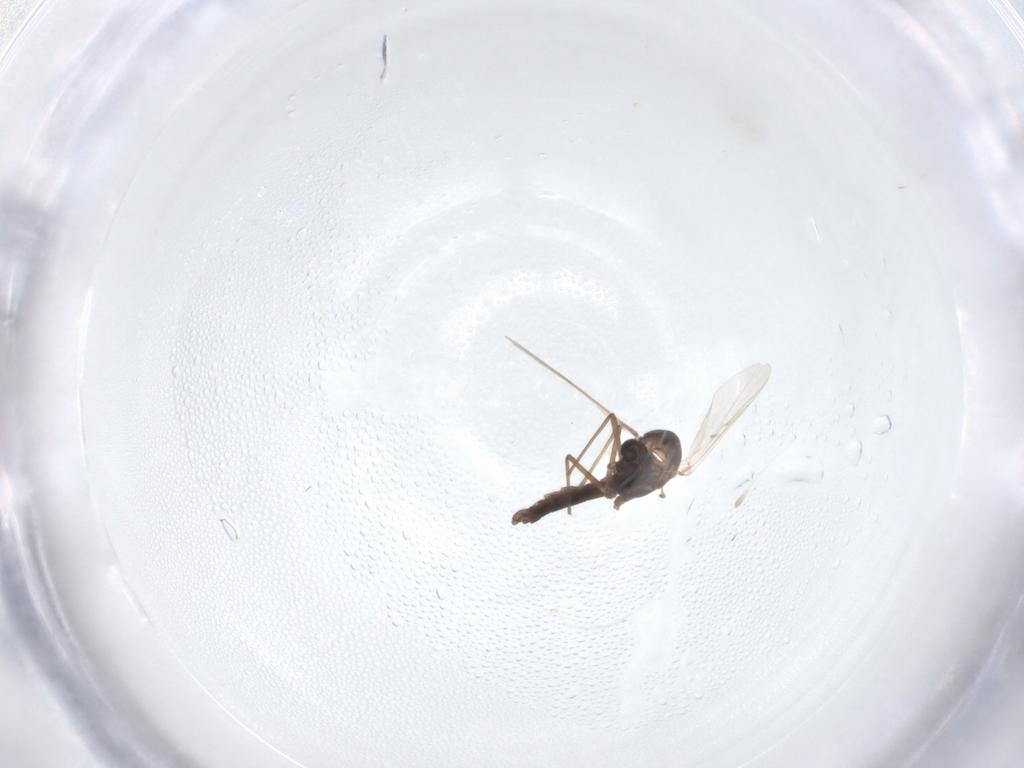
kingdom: Animalia
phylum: Arthropoda
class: Insecta
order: Diptera
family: Chironomidae
